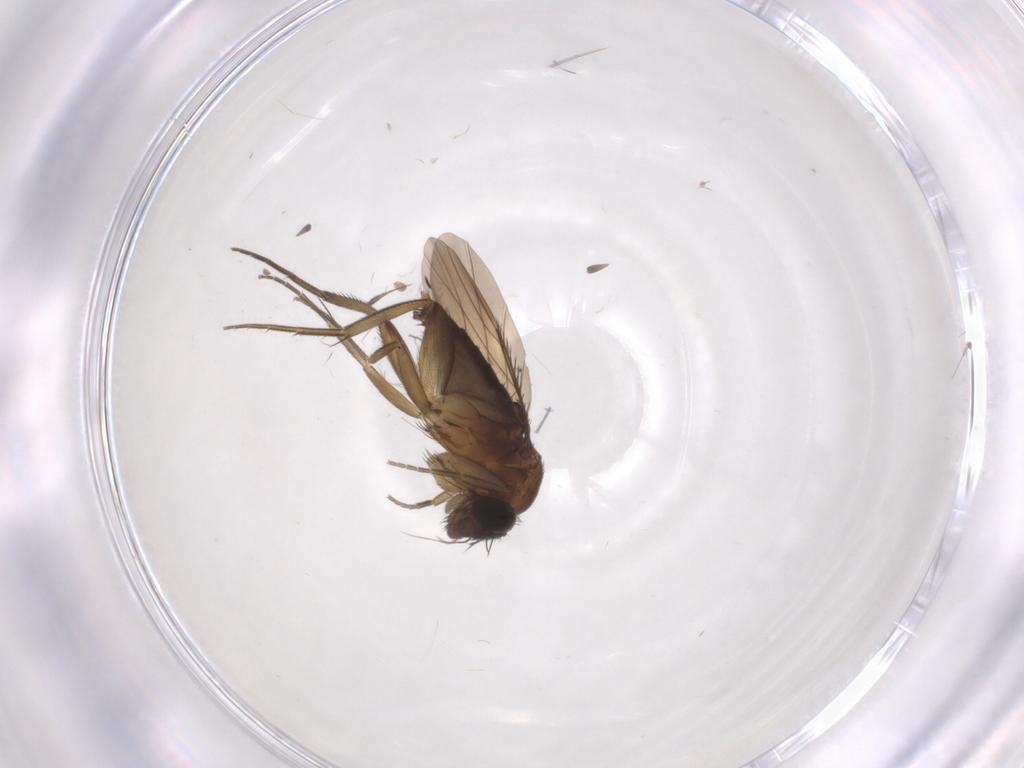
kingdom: Animalia
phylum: Arthropoda
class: Insecta
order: Diptera
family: Phoridae
